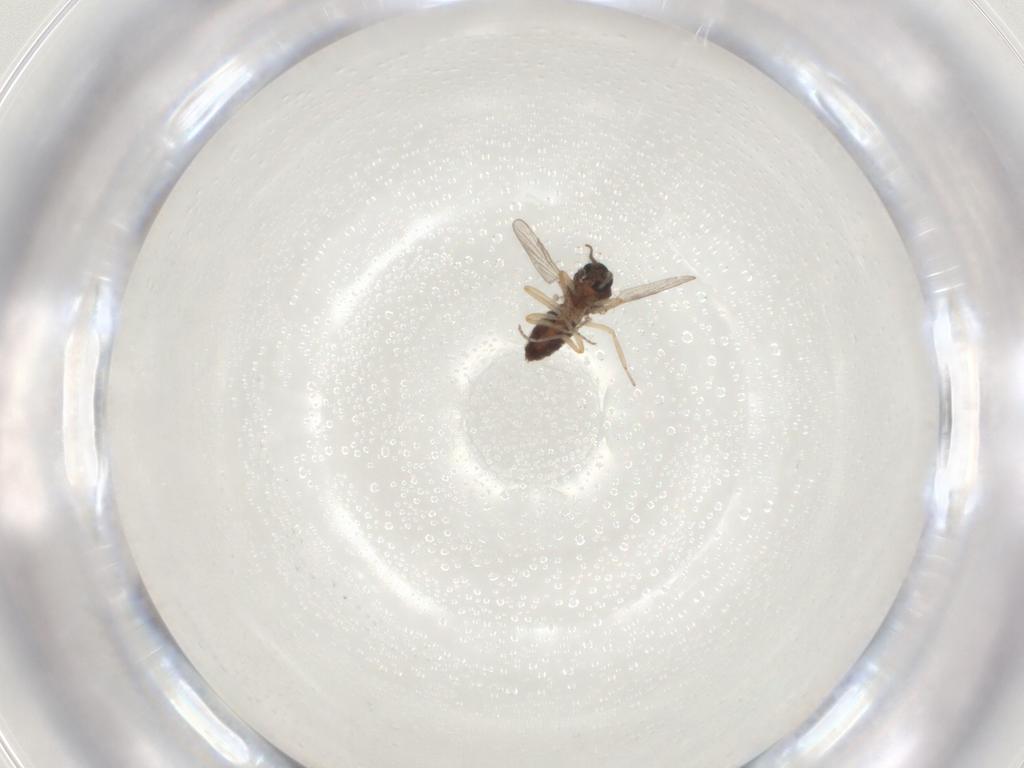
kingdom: Animalia
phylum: Arthropoda
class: Insecta
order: Diptera
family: Ceratopogonidae
